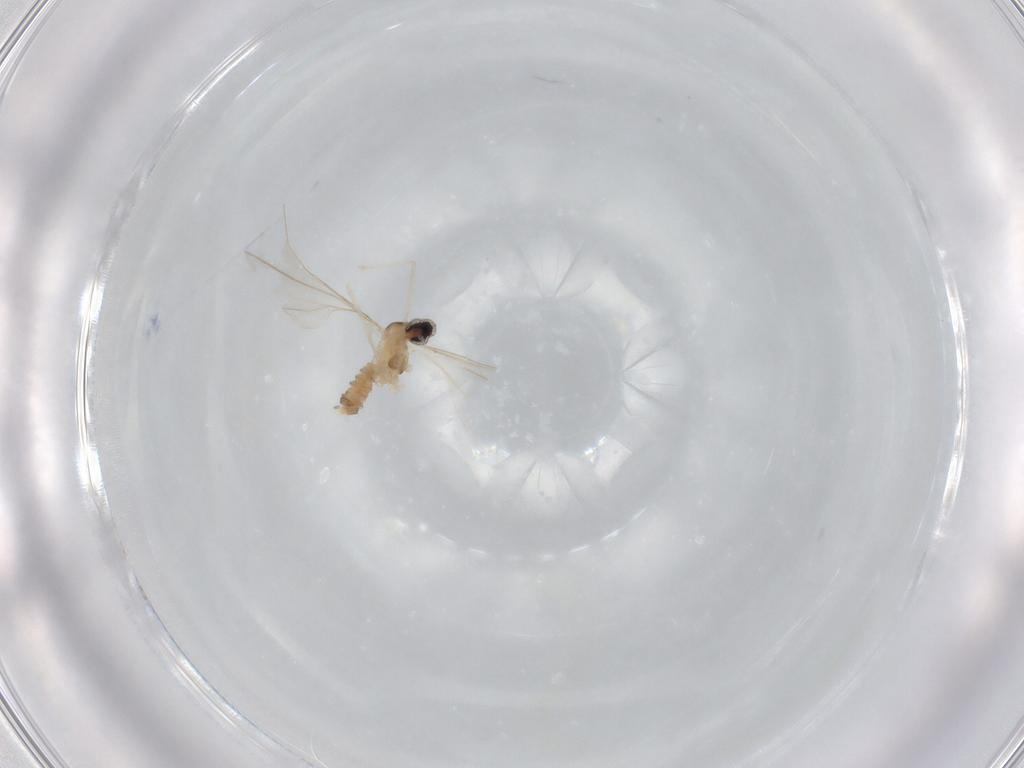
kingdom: Animalia
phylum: Arthropoda
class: Insecta
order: Diptera
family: Cecidomyiidae
